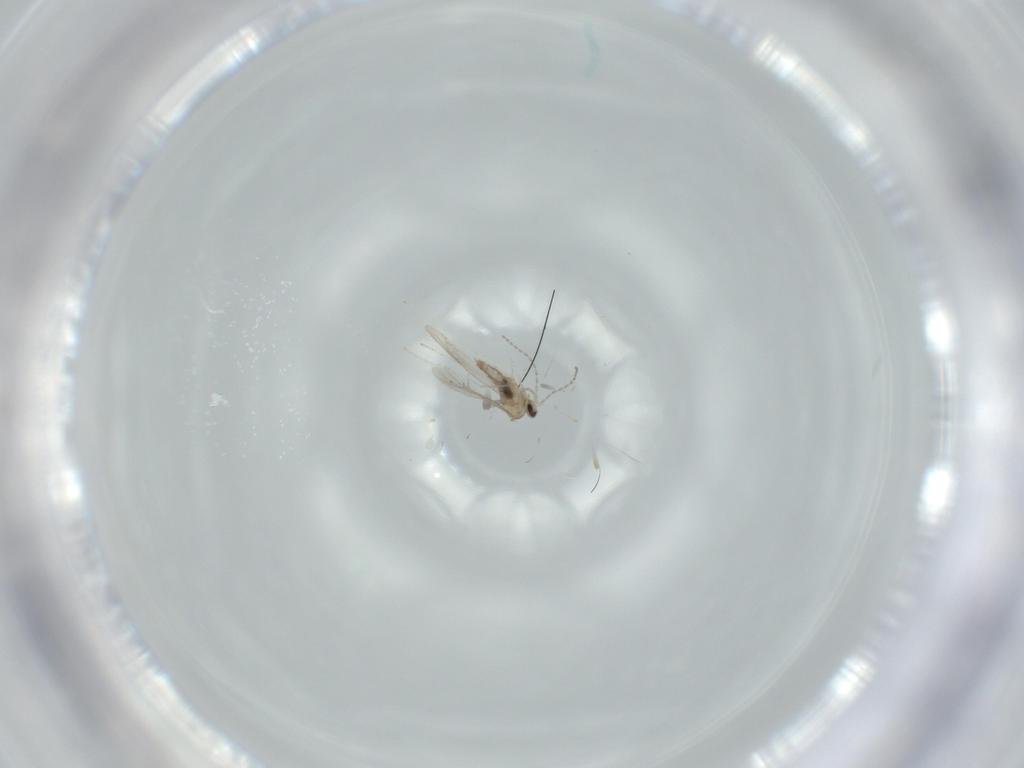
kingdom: Animalia
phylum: Arthropoda
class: Insecta
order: Diptera
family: Cecidomyiidae
